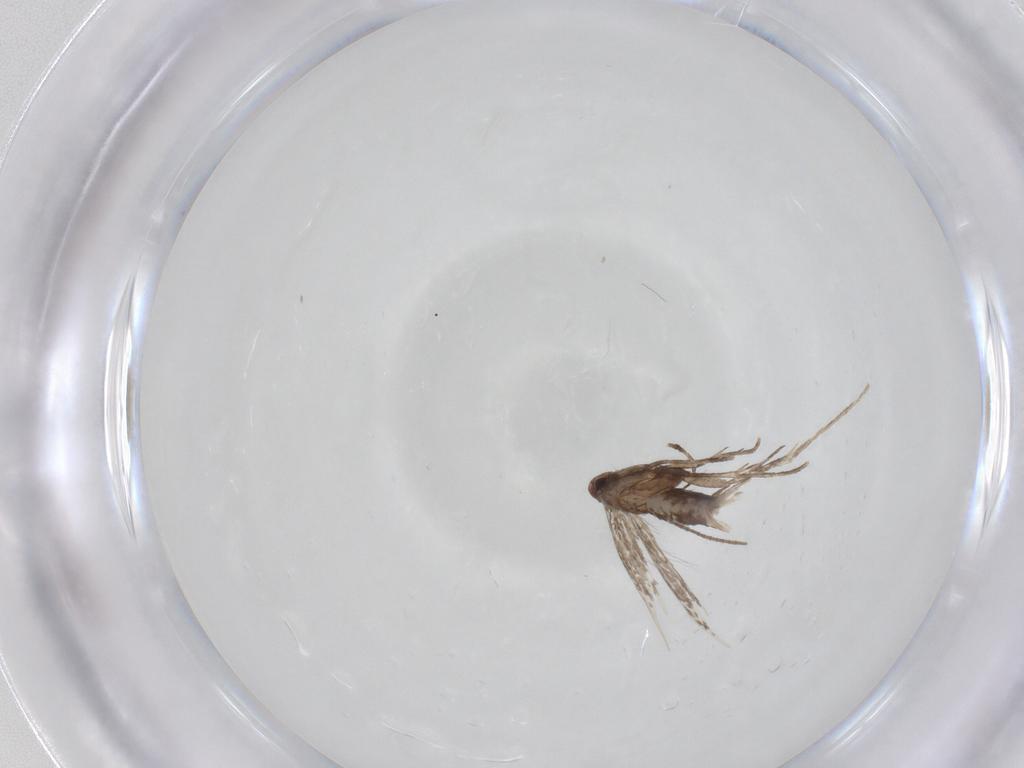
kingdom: Animalia
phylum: Arthropoda
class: Insecta
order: Lepidoptera
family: Gracillariidae
